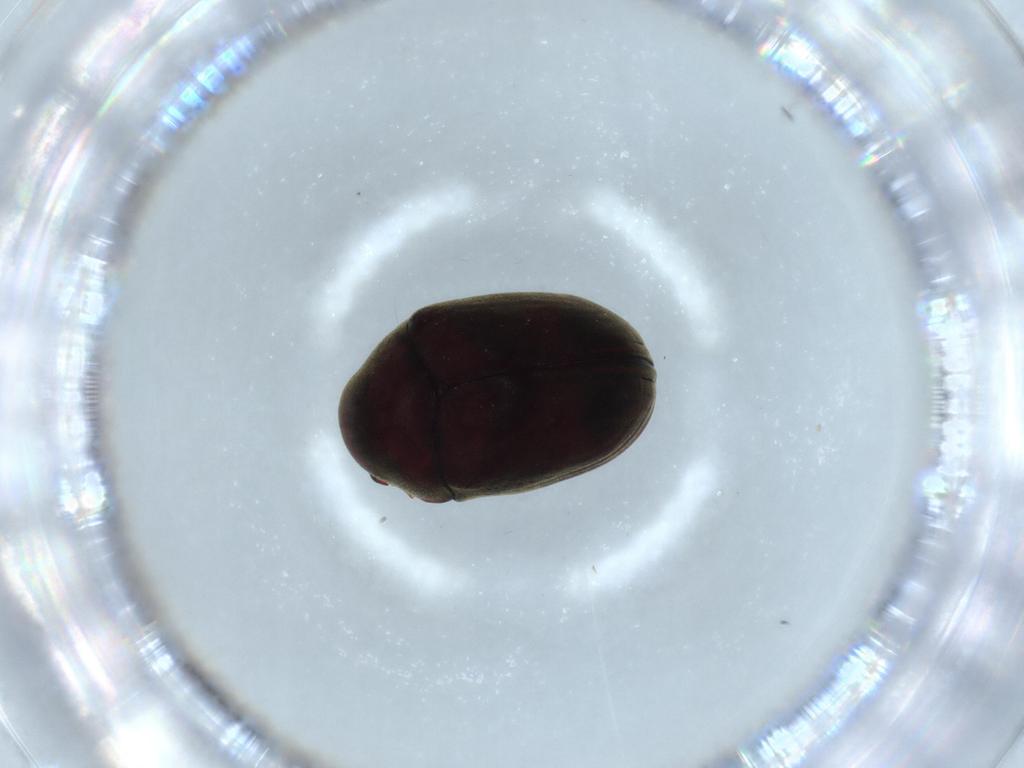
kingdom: Animalia
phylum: Arthropoda
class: Insecta
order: Coleoptera
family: Ptinidae
